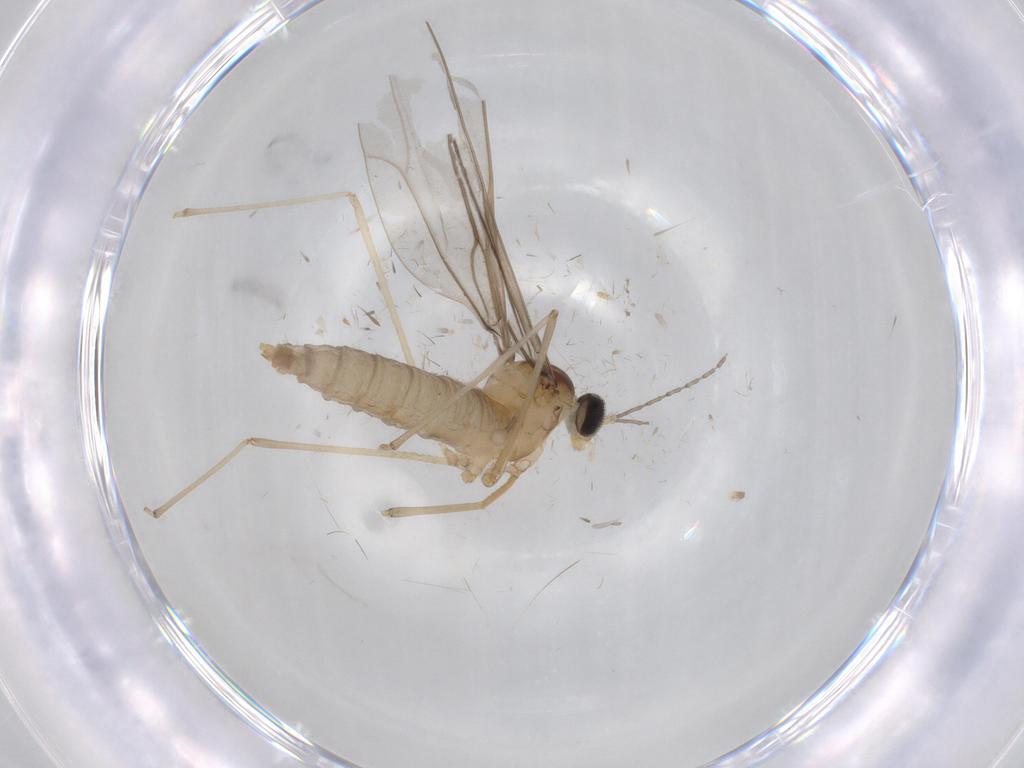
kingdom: Animalia
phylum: Arthropoda
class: Insecta
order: Diptera
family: Cecidomyiidae
